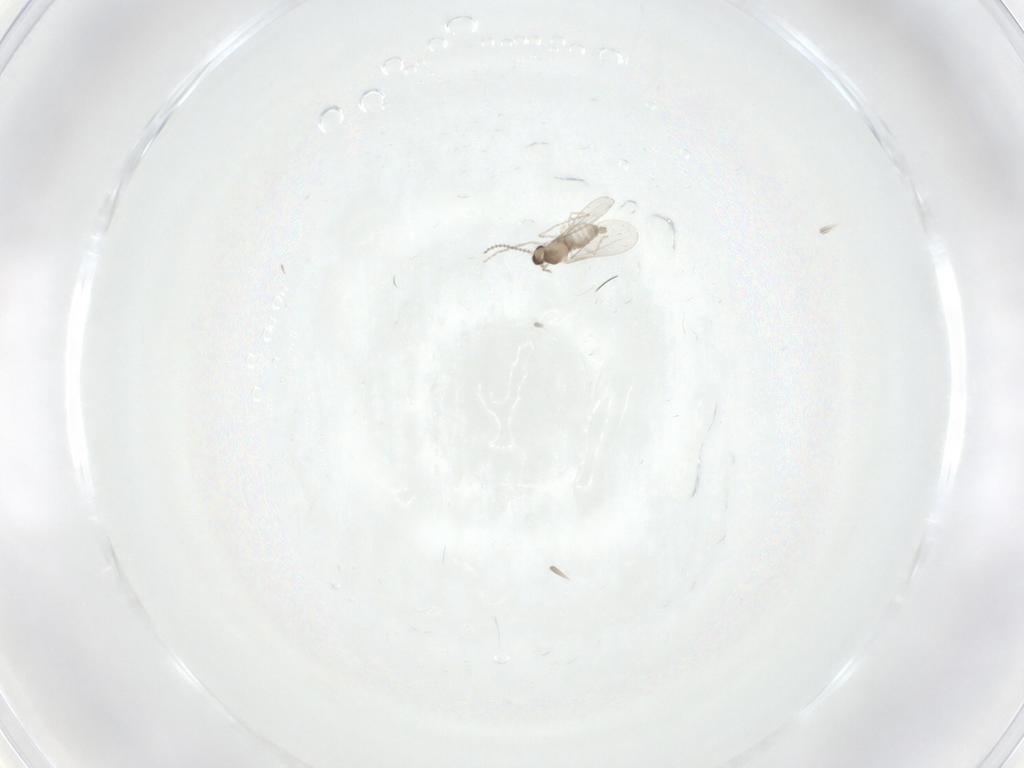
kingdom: Animalia
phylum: Arthropoda
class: Insecta
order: Diptera
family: Cecidomyiidae
